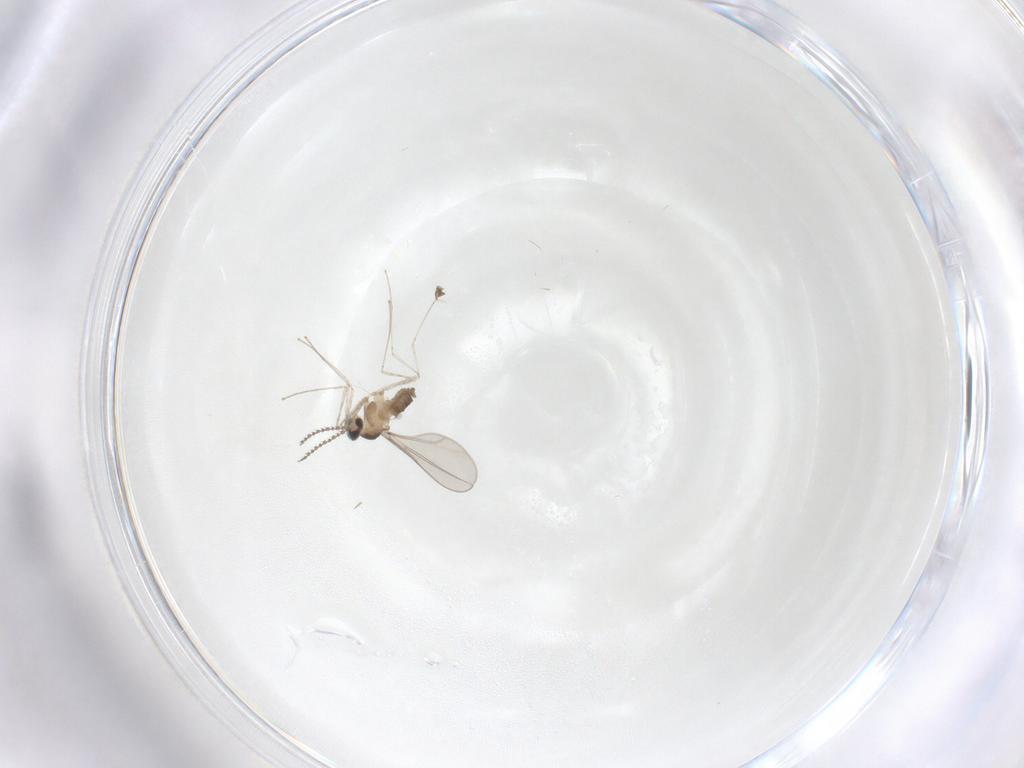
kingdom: Animalia
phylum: Arthropoda
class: Insecta
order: Diptera
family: Cecidomyiidae
